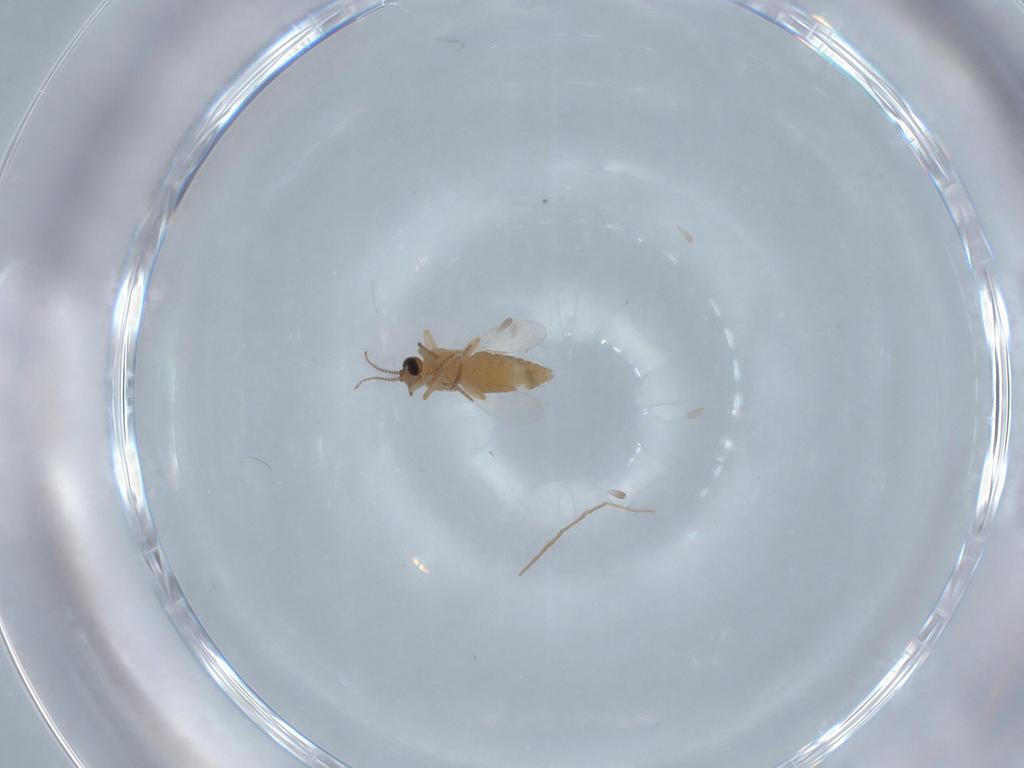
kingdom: Animalia
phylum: Arthropoda
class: Insecta
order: Diptera
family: Ceratopogonidae
